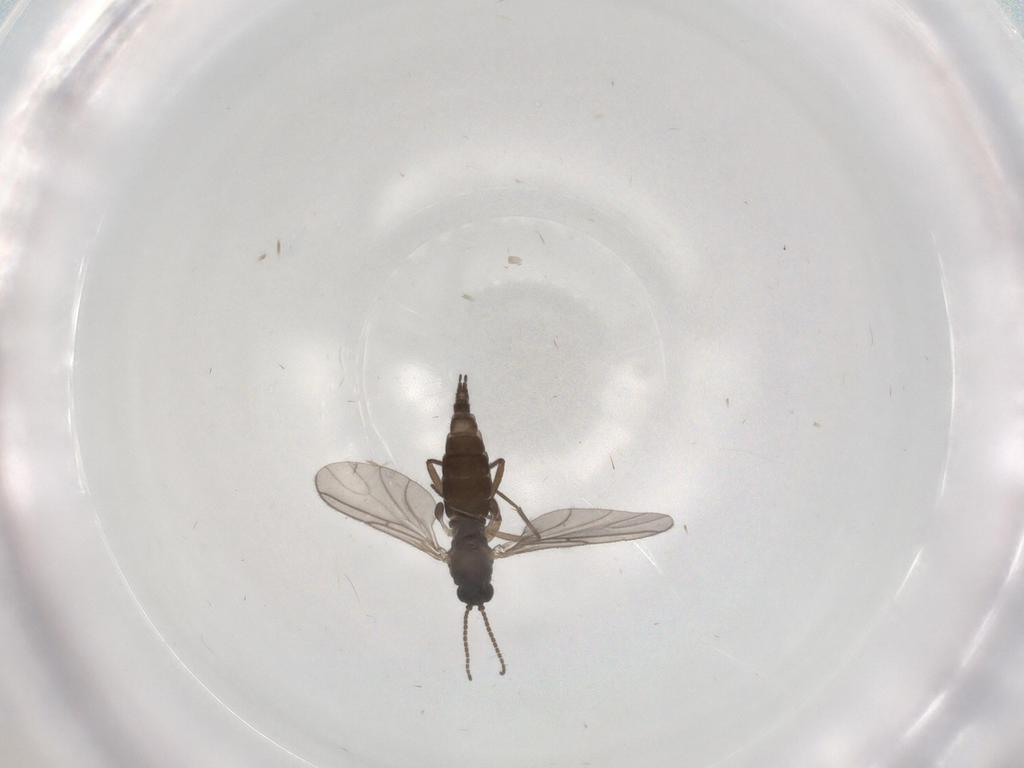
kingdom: Animalia
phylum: Arthropoda
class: Insecta
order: Diptera
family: Sciaridae
